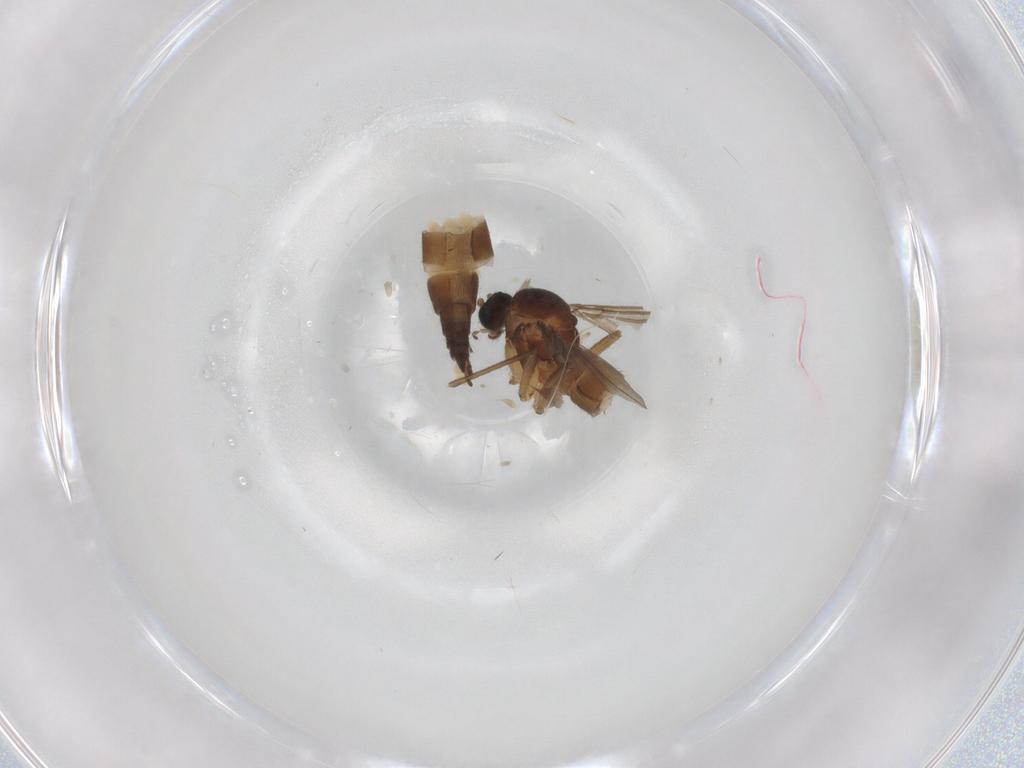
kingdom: Animalia
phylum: Arthropoda
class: Insecta
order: Diptera
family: Sciaridae
